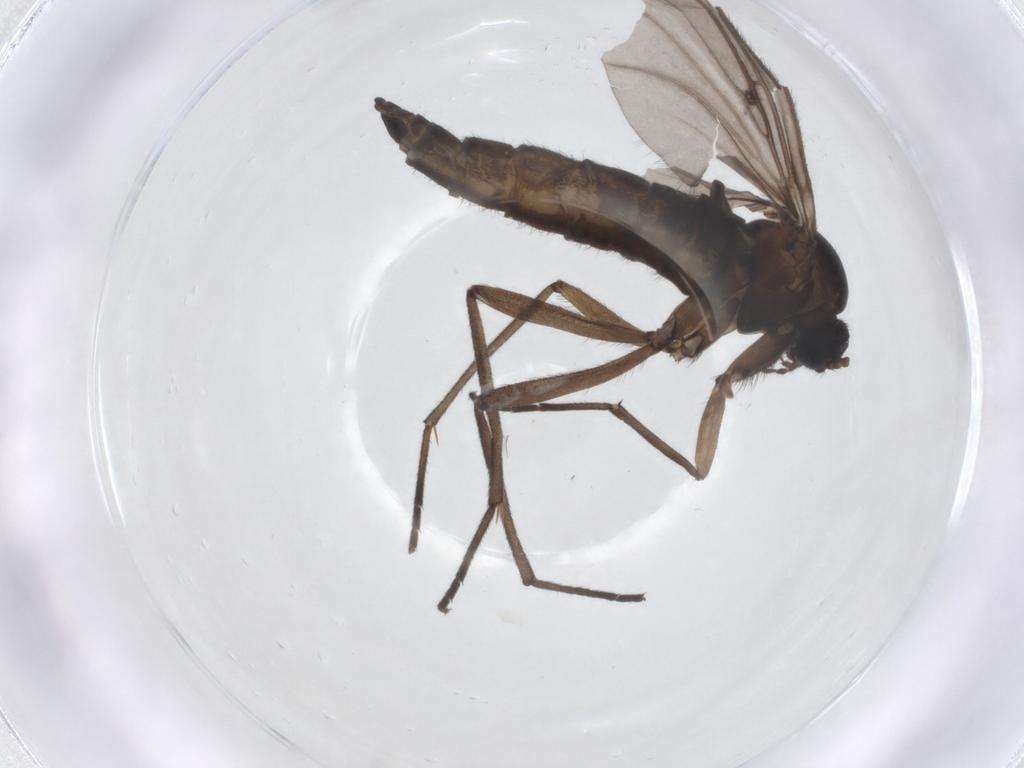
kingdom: Animalia
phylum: Arthropoda
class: Insecta
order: Diptera
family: Sciaridae
